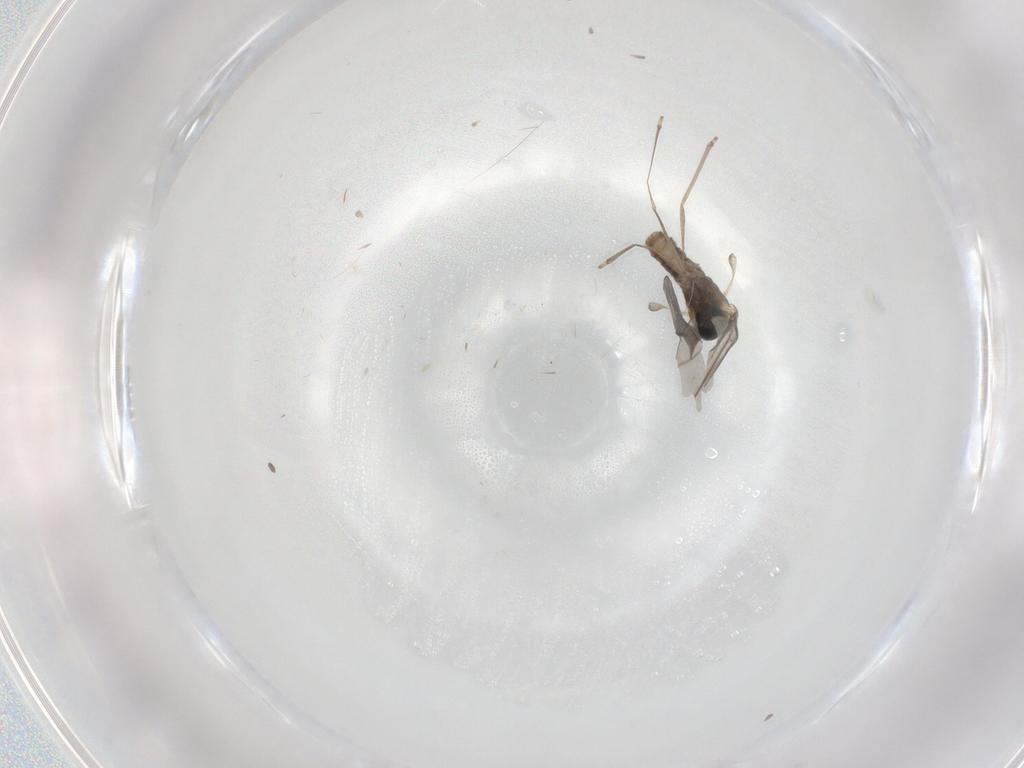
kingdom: Animalia
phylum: Arthropoda
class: Insecta
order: Diptera
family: Cecidomyiidae
